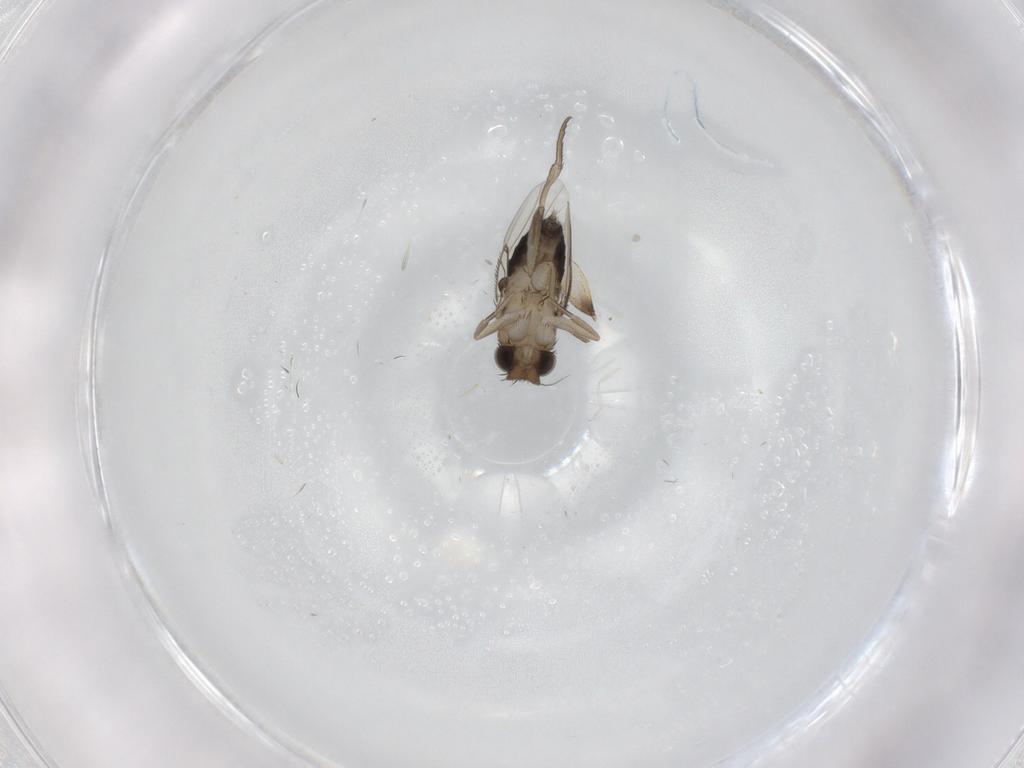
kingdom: Animalia
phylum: Arthropoda
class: Insecta
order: Diptera
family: Phoridae
